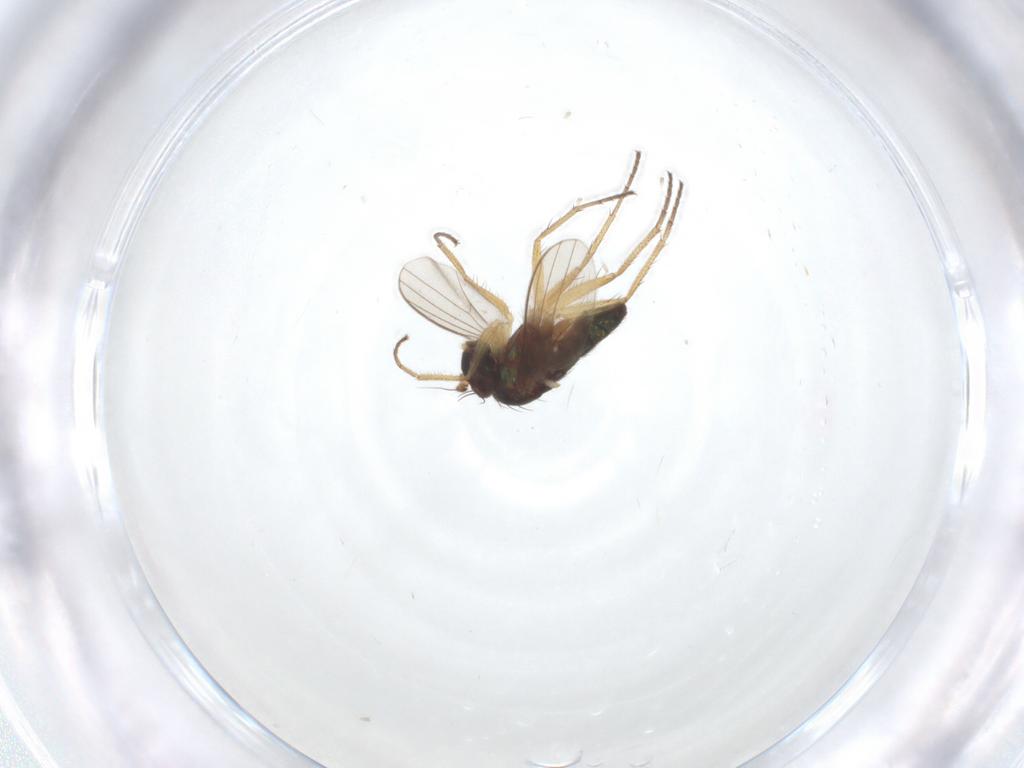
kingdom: Animalia
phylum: Arthropoda
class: Insecta
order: Diptera
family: Dolichopodidae
